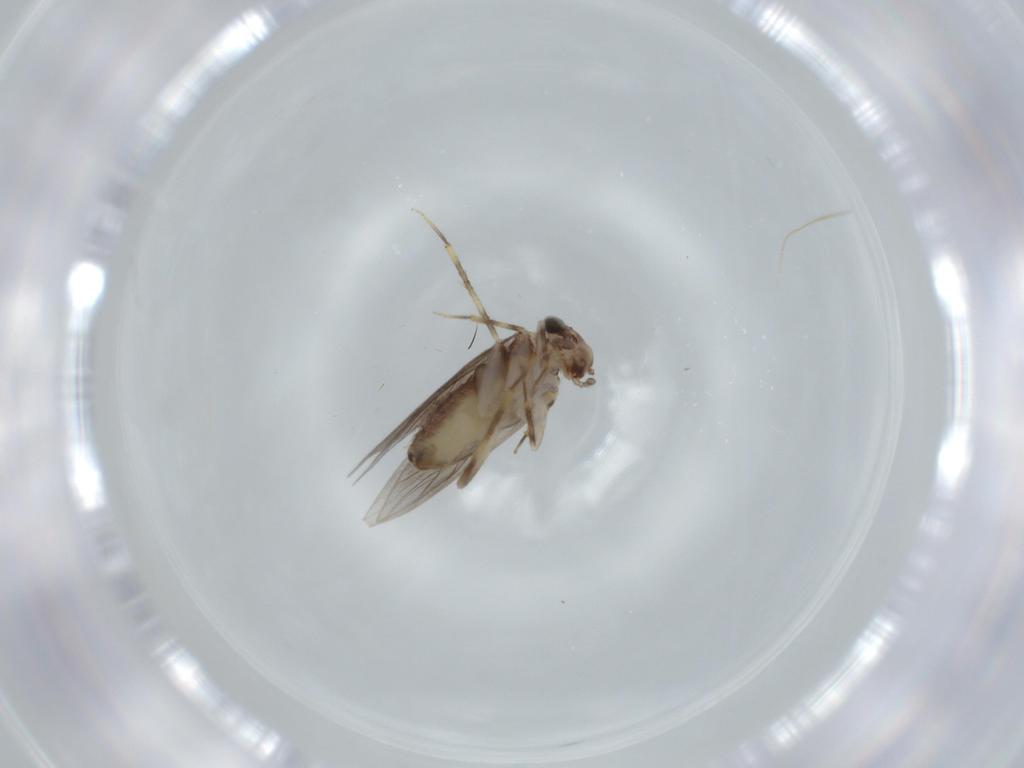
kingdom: Animalia
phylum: Arthropoda
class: Insecta
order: Psocodea
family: Lepidopsocidae
